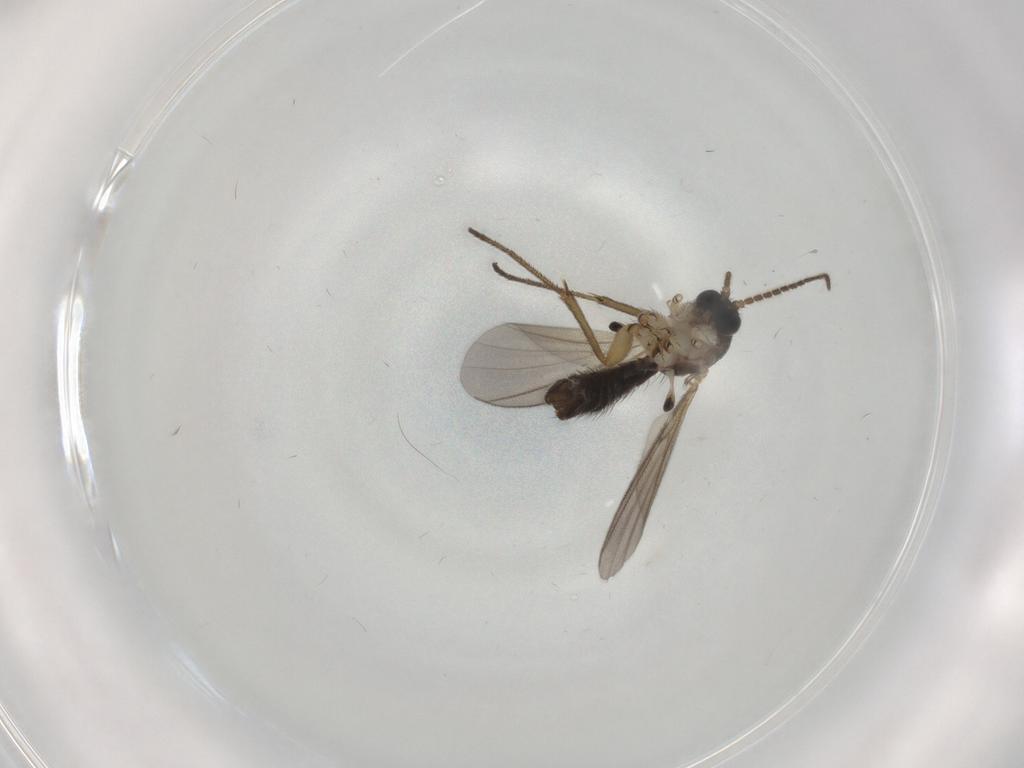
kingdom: Animalia
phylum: Arthropoda
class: Insecta
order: Diptera
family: Mycetophilidae
